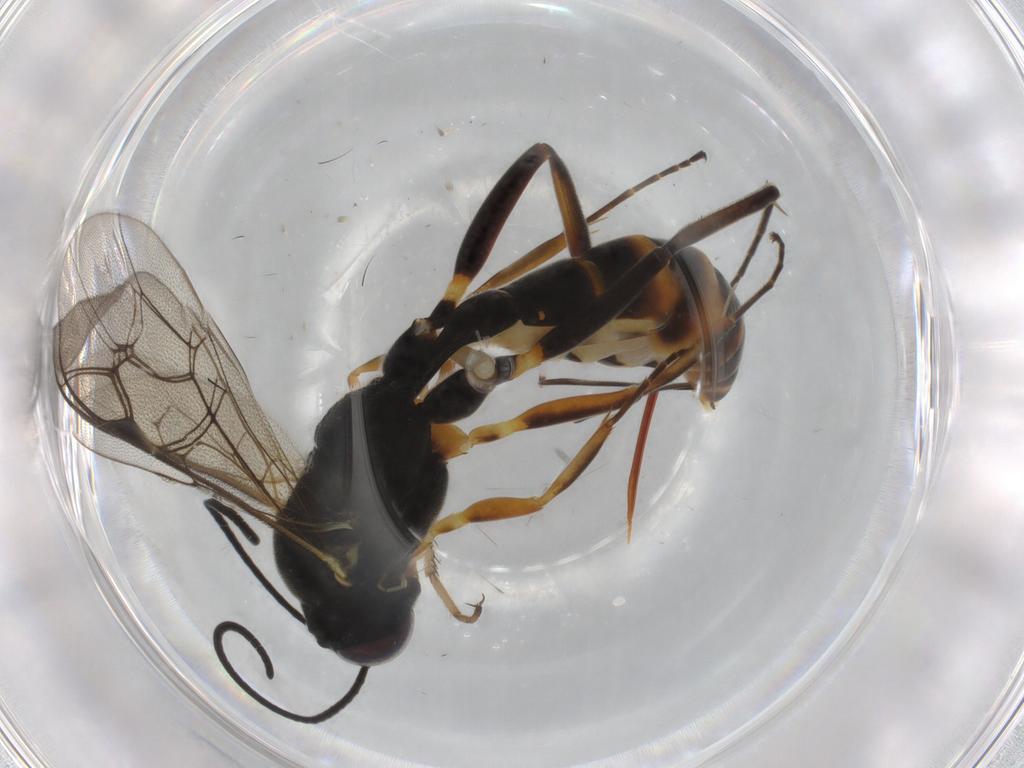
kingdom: Animalia
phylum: Arthropoda
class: Insecta
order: Hymenoptera
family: Ichneumonidae
